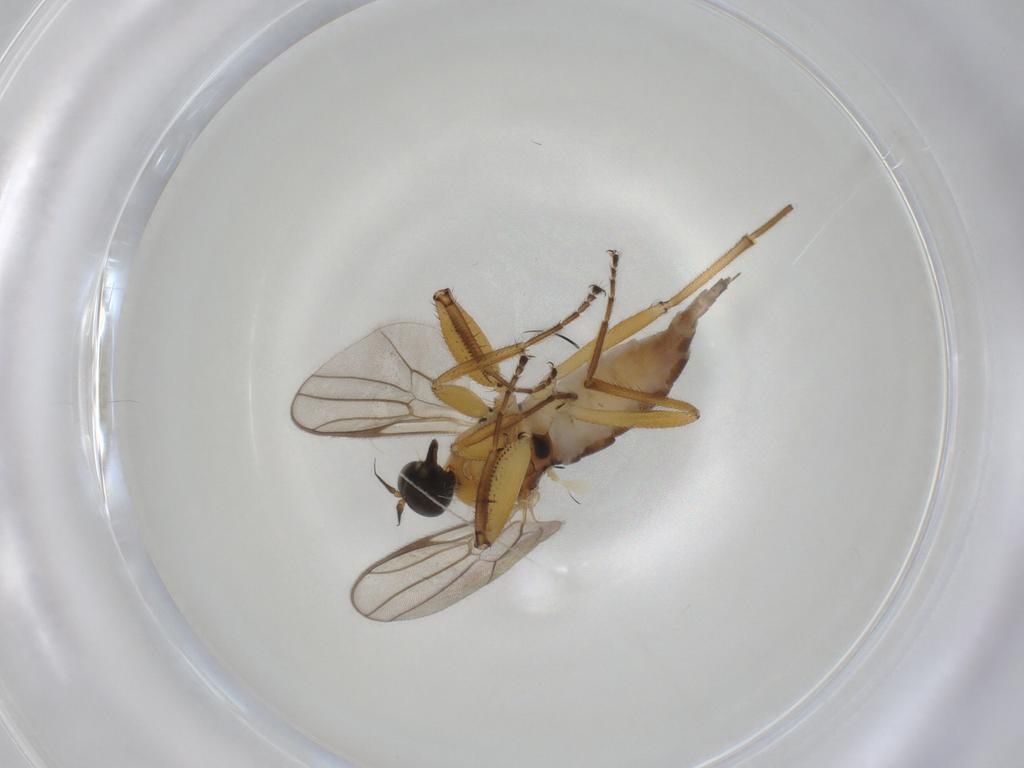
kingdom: Animalia
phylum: Arthropoda
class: Insecta
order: Diptera
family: Hybotidae
